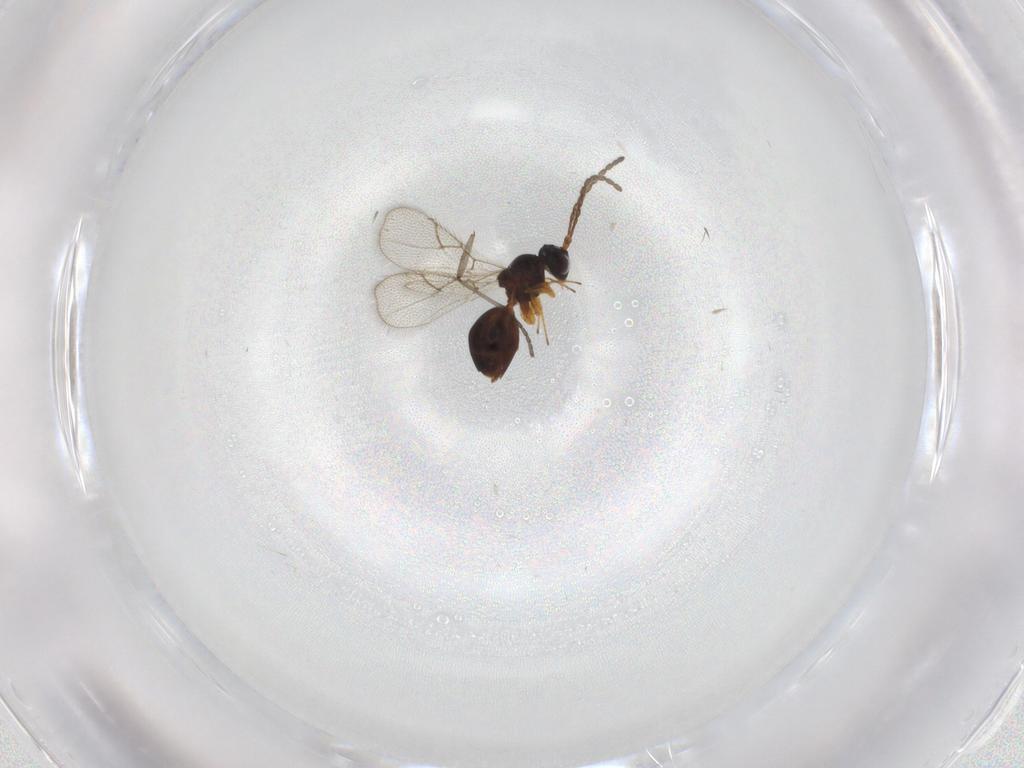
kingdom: Animalia
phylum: Arthropoda
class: Insecta
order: Hymenoptera
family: Figitidae
